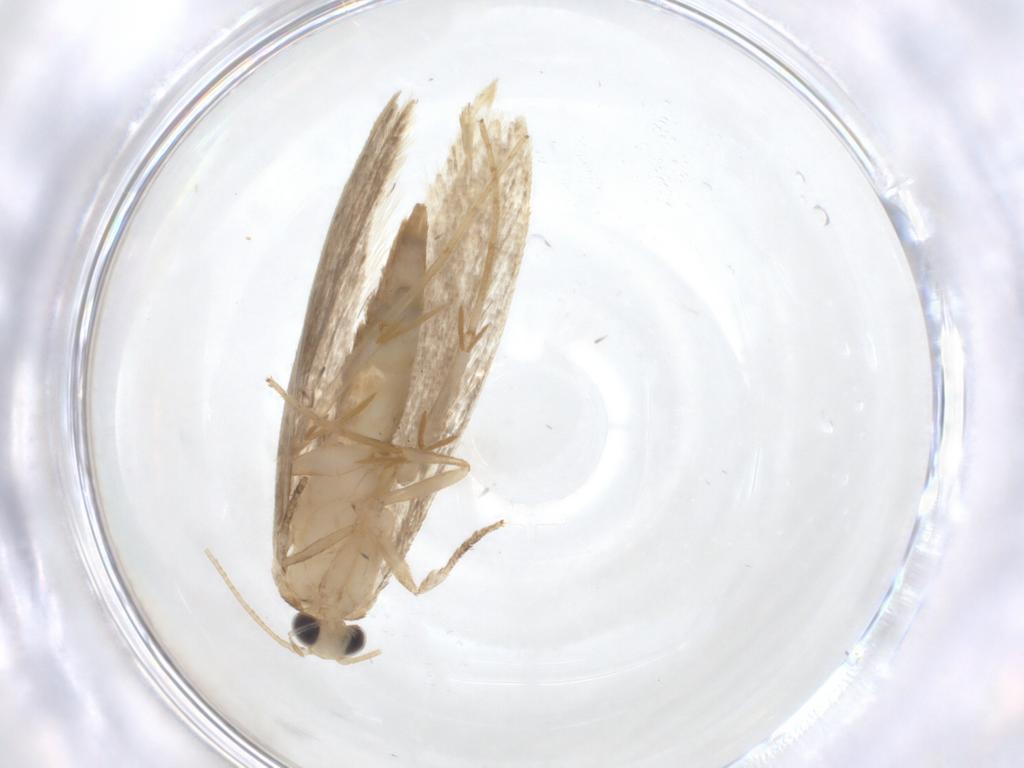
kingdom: Animalia
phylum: Arthropoda
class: Insecta
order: Lepidoptera
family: Tineidae
